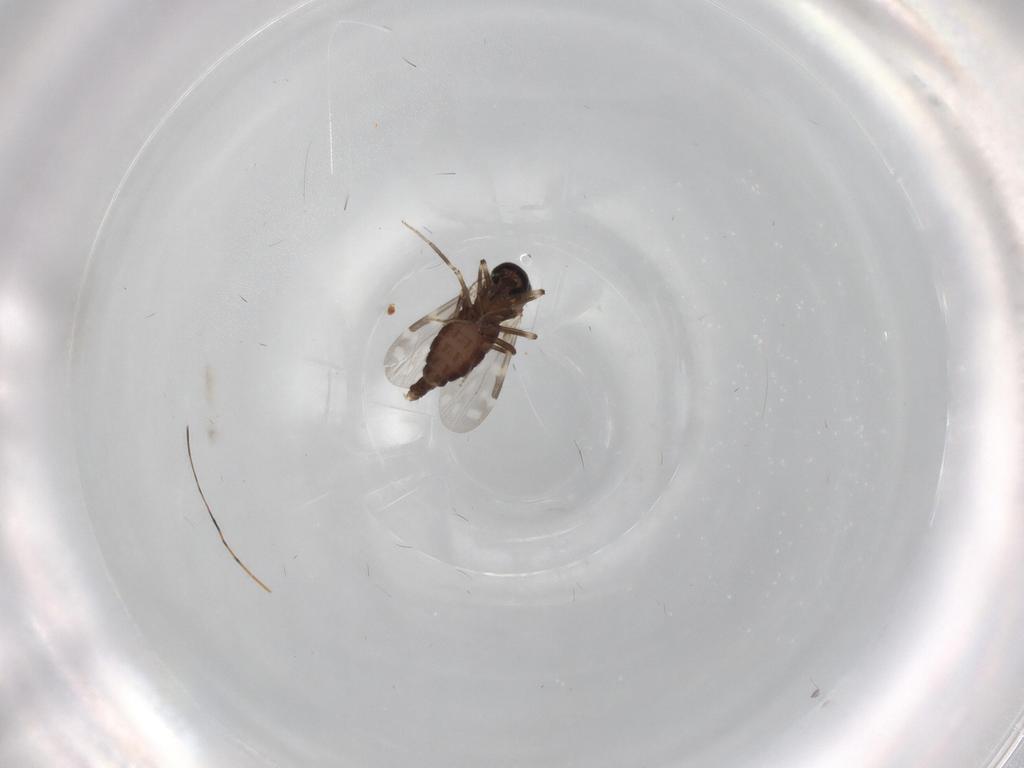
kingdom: Animalia
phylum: Arthropoda
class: Insecta
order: Diptera
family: Ceratopogonidae
